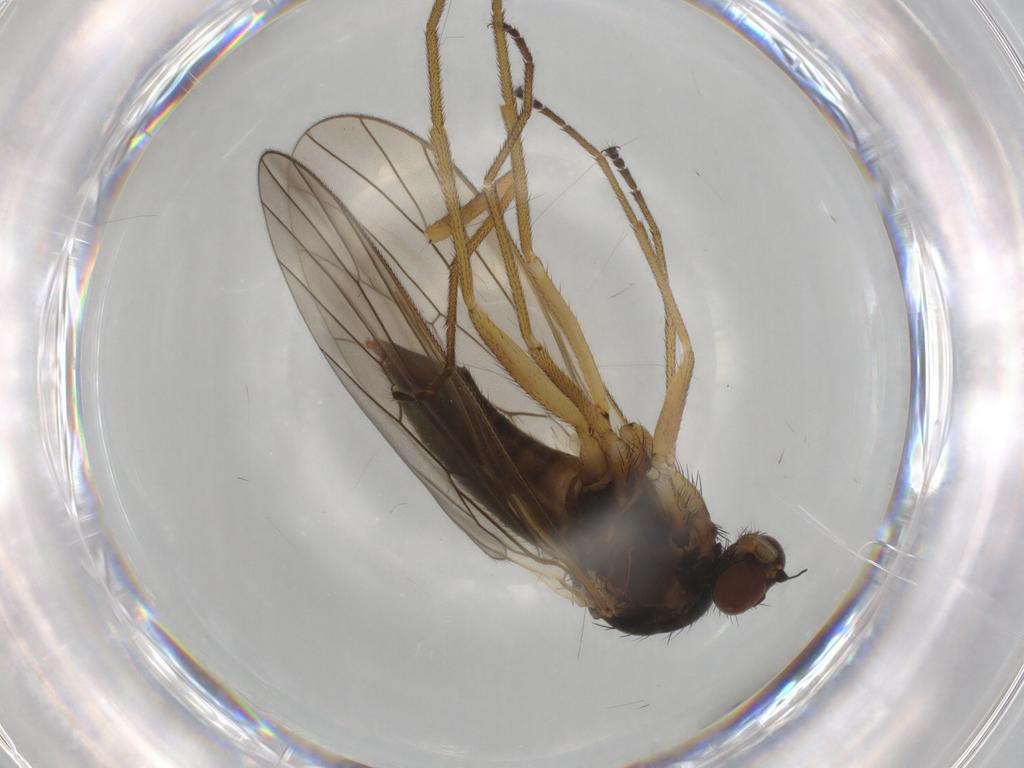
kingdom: Animalia
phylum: Arthropoda
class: Insecta
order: Diptera
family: Brachystomatidae
